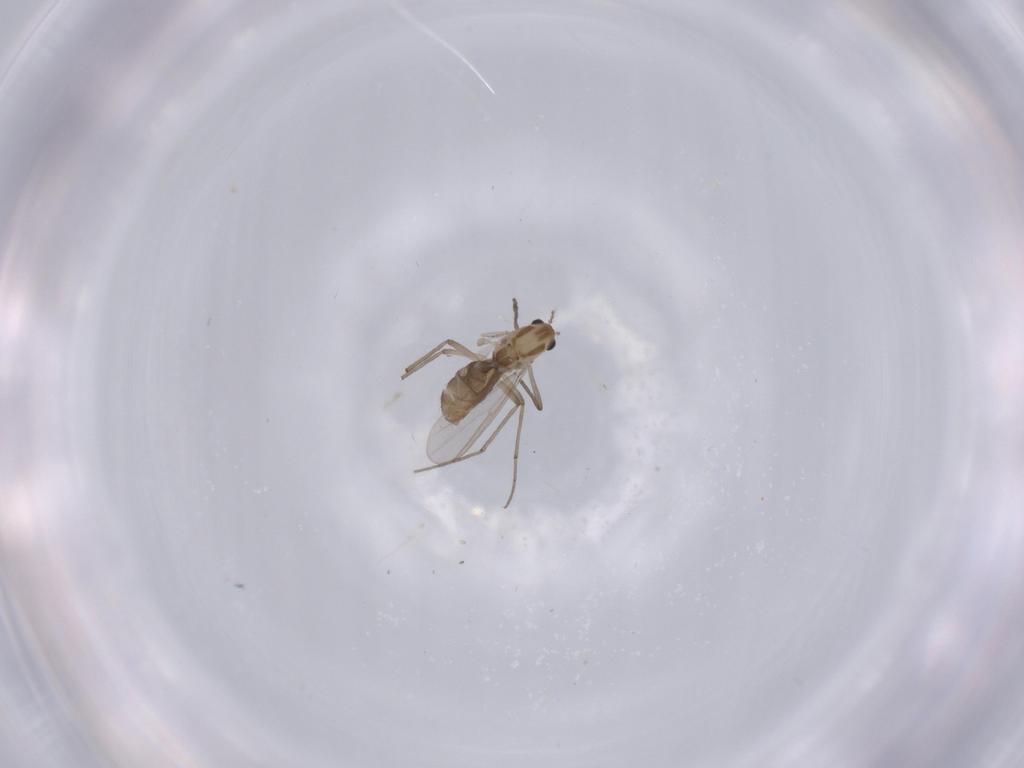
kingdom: Animalia
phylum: Arthropoda
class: Insecta
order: Diptera
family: Chironomidae
